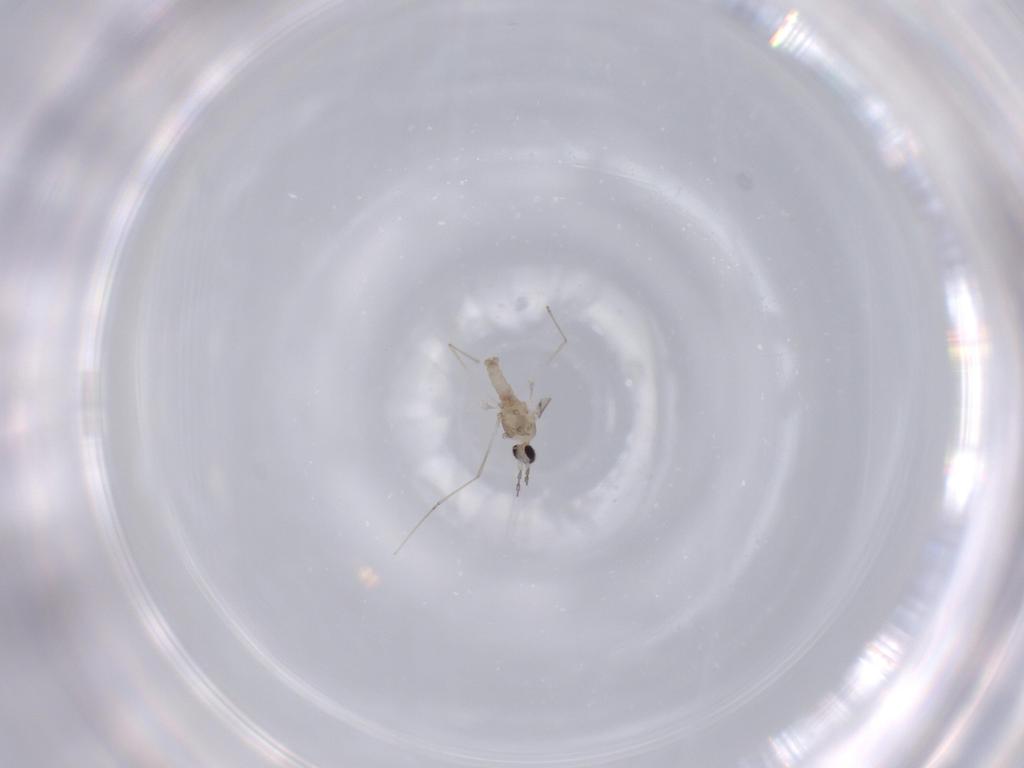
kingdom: Animalia
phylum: Arthropoda
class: Insecta
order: Diptera
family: Cecidomyiidae
